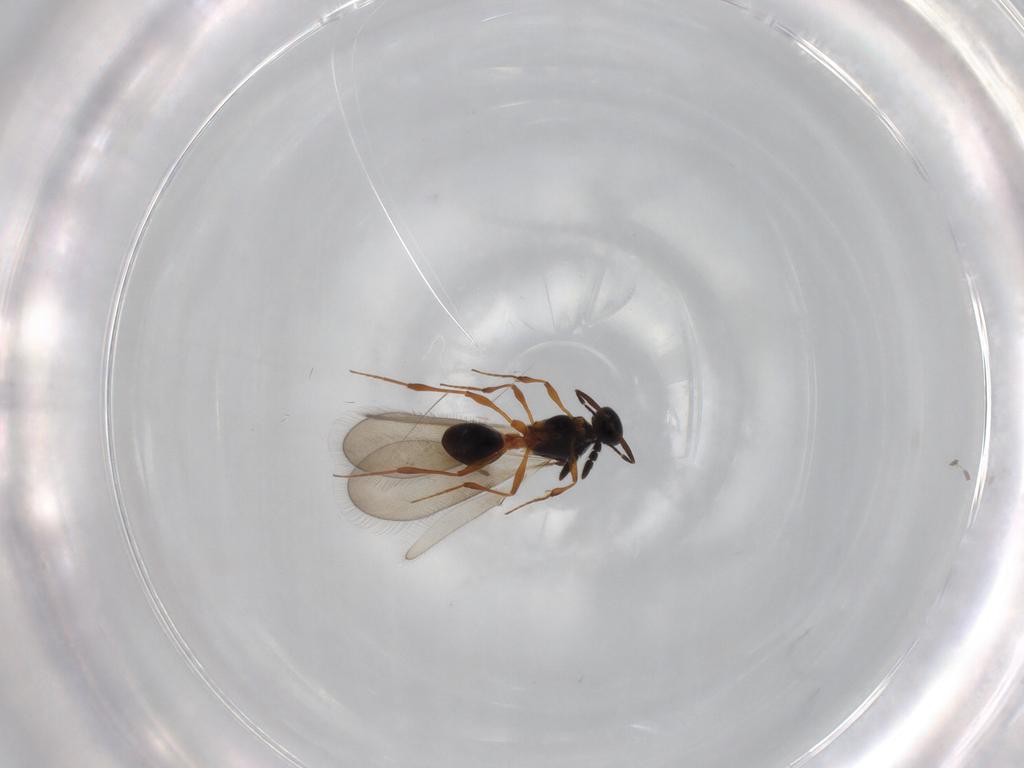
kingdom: Animalia
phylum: Arthropoda
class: Insecta
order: Hymenoptera
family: Platygastridae
